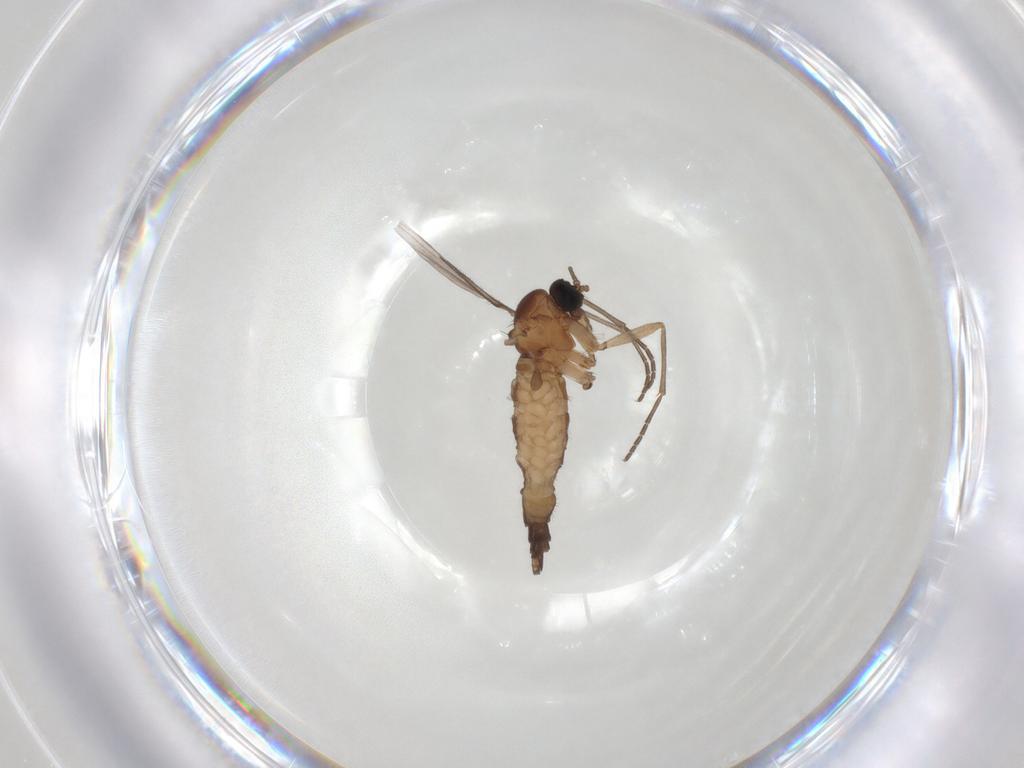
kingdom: Animalia
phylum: Arthropoda
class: Insecta
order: Diptera
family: Sciaridae
